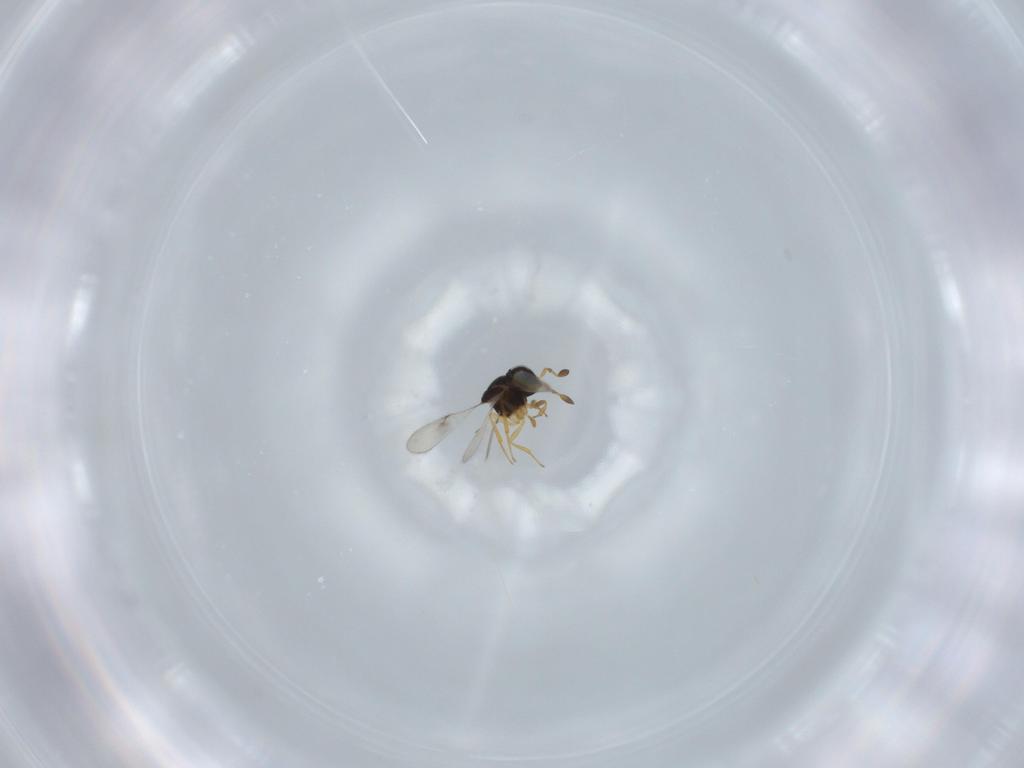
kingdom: Animalia
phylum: Arthropoda
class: Insecta
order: Hymenoptera
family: Scelionidae
